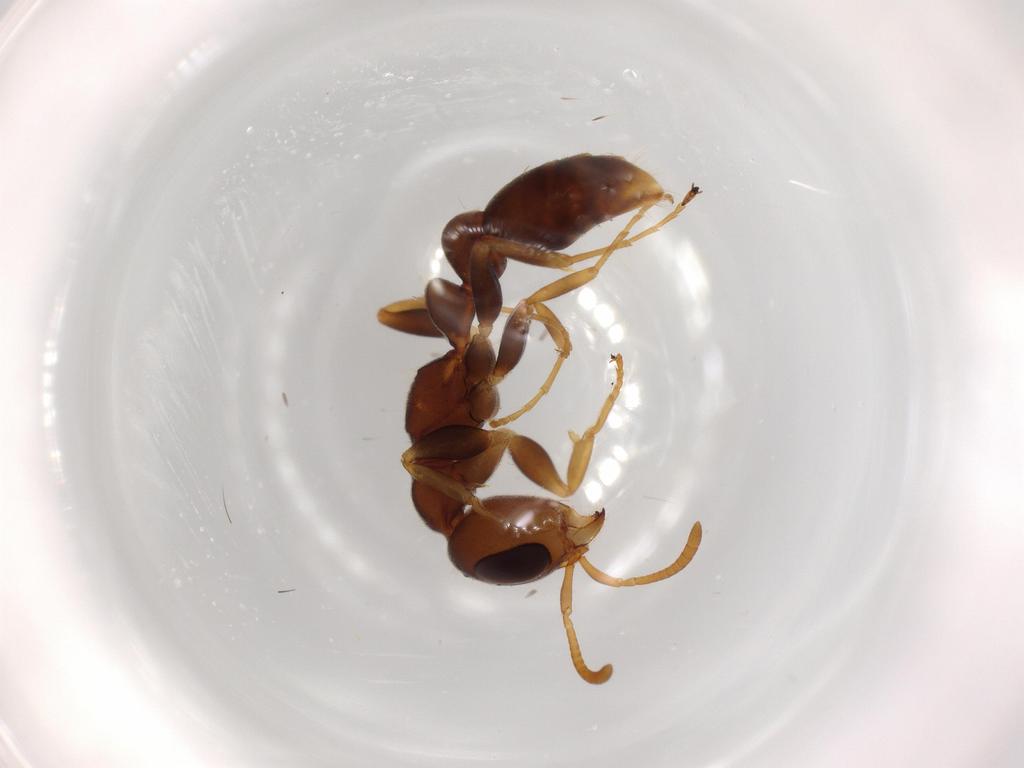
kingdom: Animalia
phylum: Arthropoda
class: Insecta
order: Hymenoptera
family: Formicidae
